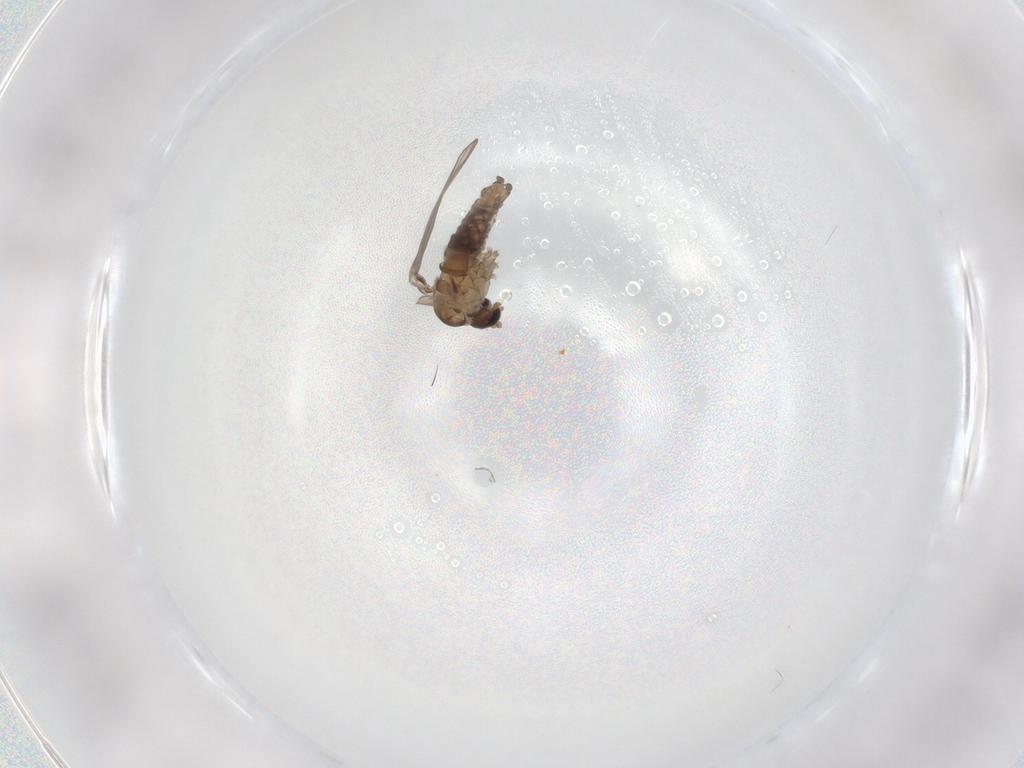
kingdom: Animalia
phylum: Arthropoda
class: Insecta
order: Diptera
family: Psychodidae
